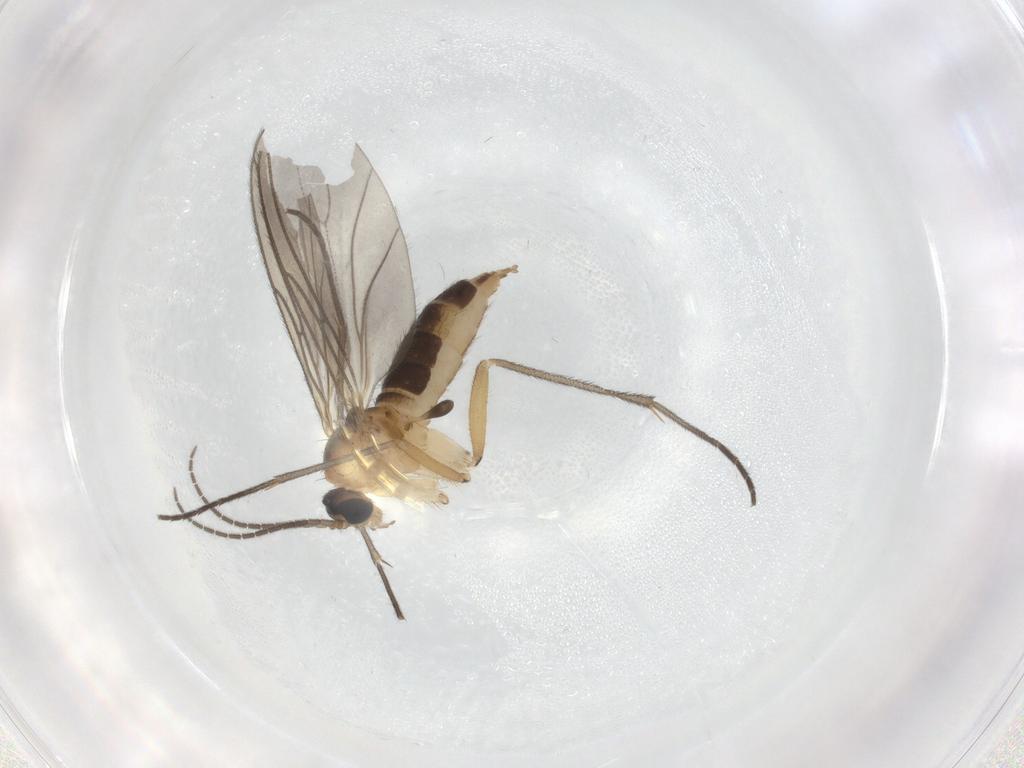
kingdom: Animalia
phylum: Arthropoda
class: Insecta
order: Diptera
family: Sciaridae
